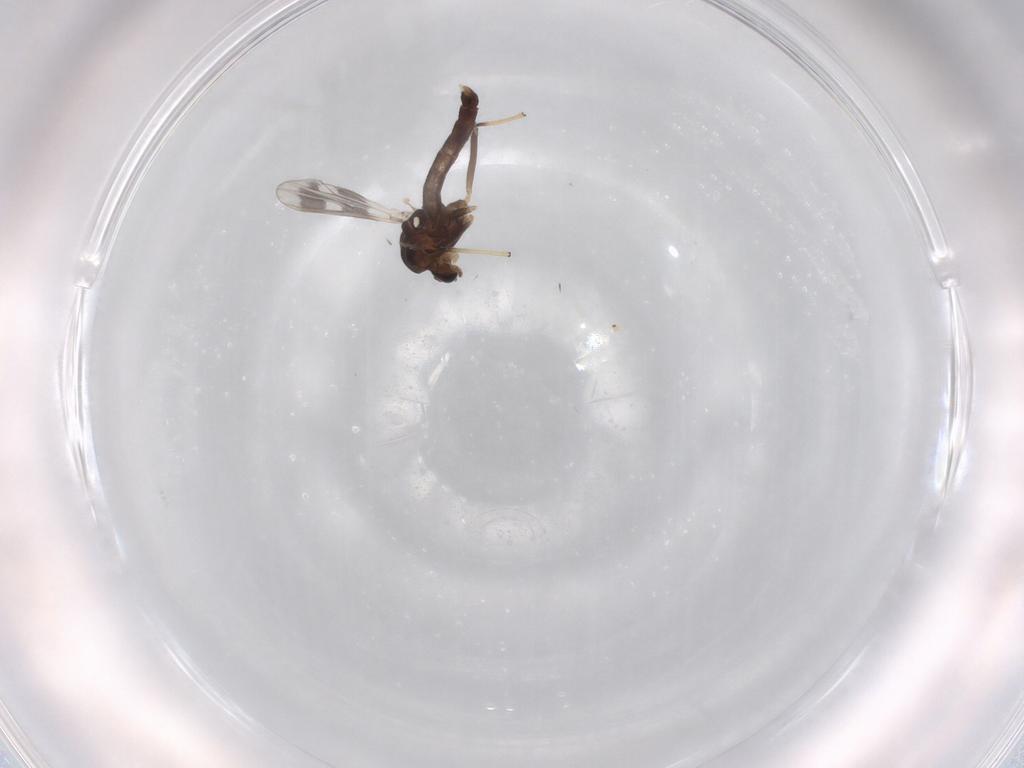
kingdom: Animalia
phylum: Arthropoda
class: Insecta
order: Diptera
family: Chironomidae
